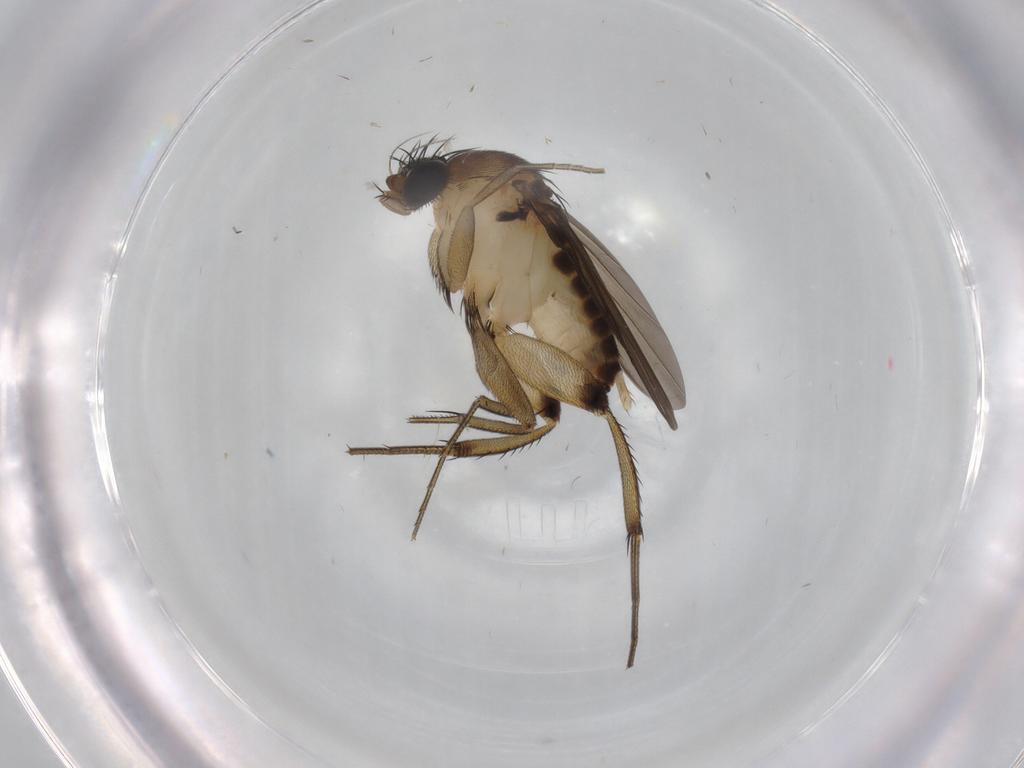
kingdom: Animalia
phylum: Arthropoda
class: Insecta
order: Diptera
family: Phoridae
